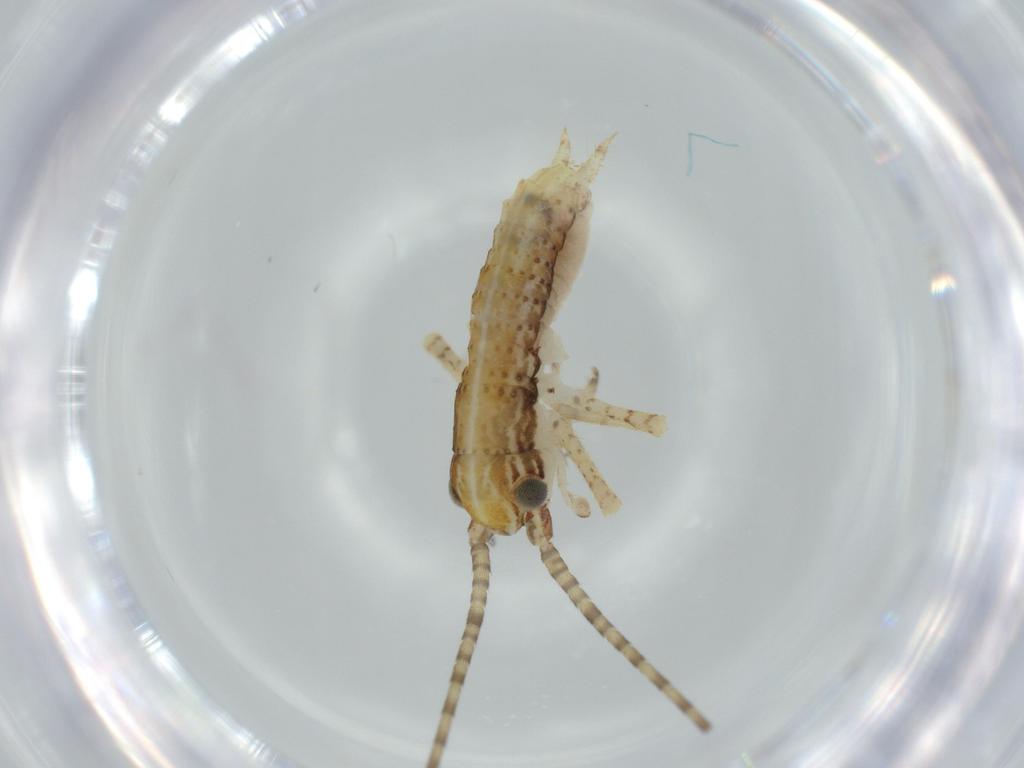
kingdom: Animalia
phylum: Arthropoda
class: Insecta
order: Orthoptera
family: Gryllidae
